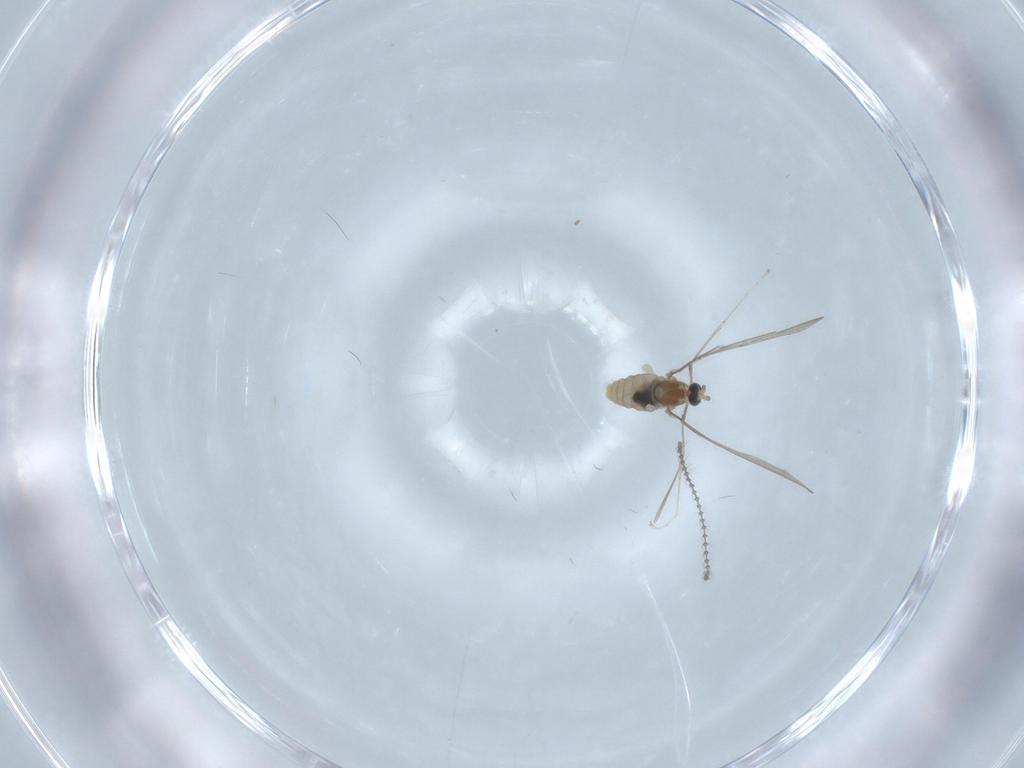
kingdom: Animalia
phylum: Arthropoda
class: Insecta
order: Diptera
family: Cecidomyiidae
